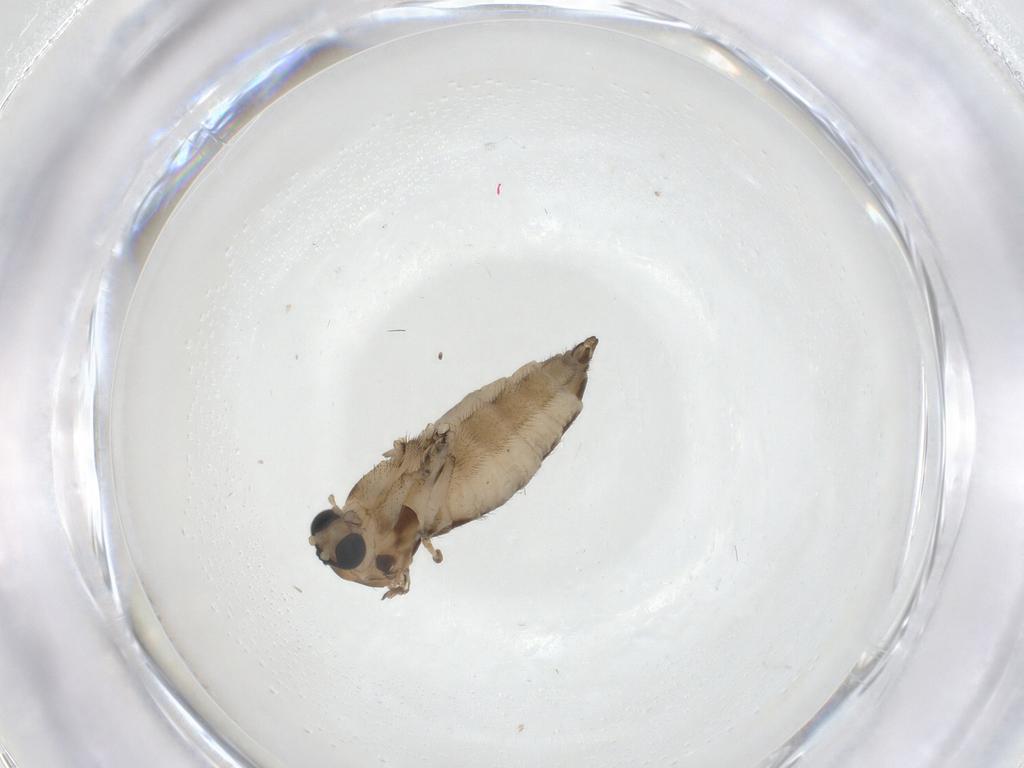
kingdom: Animalia
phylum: Arthropoda
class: Insecta
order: Diptera
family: Sciaridae
